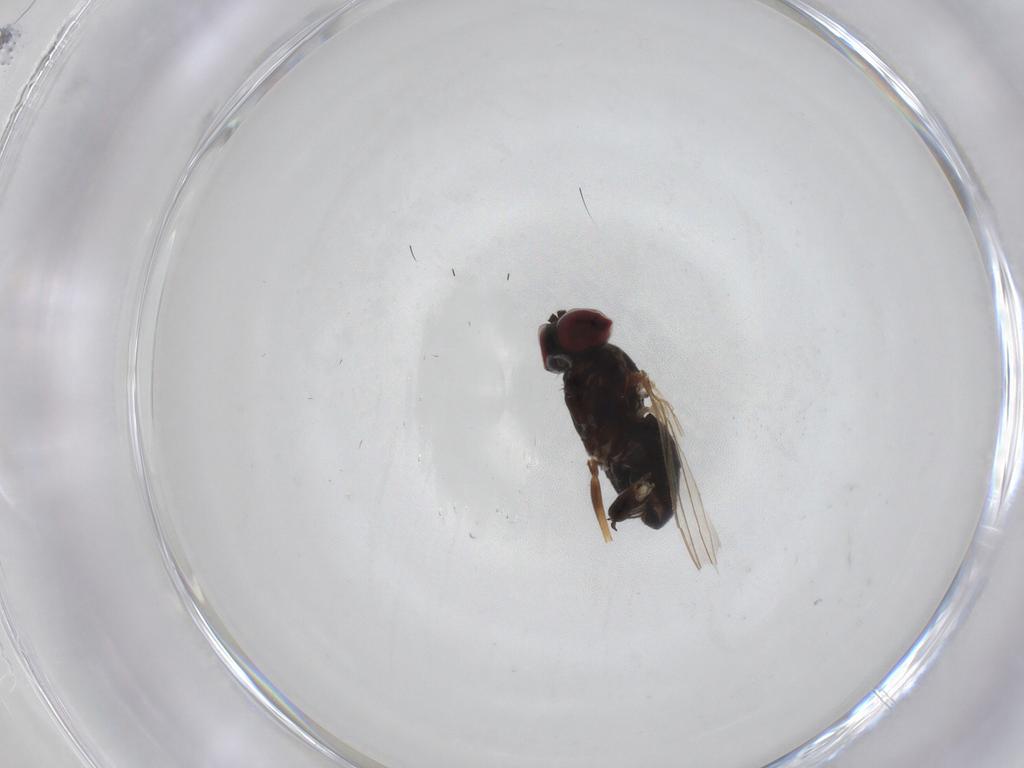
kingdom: Animalia
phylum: Arthropoda
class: Insecta
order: Diptera
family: Dolichopodidae
